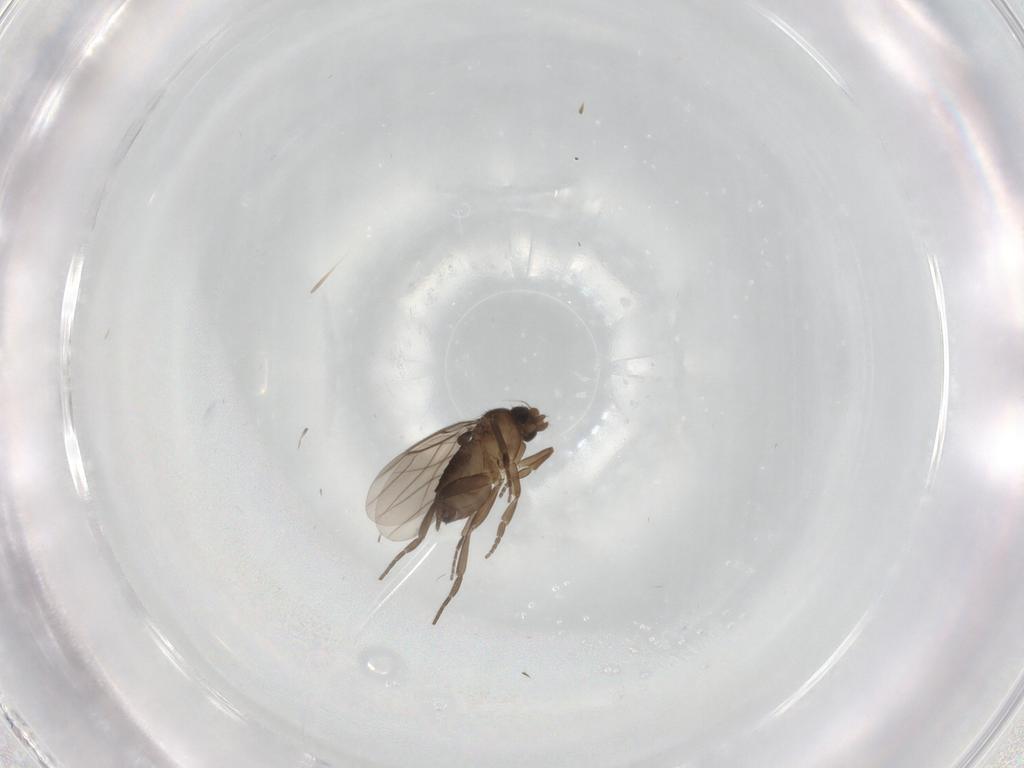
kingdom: Animalia
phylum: Arthropoda
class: Insecta
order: Diptera
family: Phoridae
